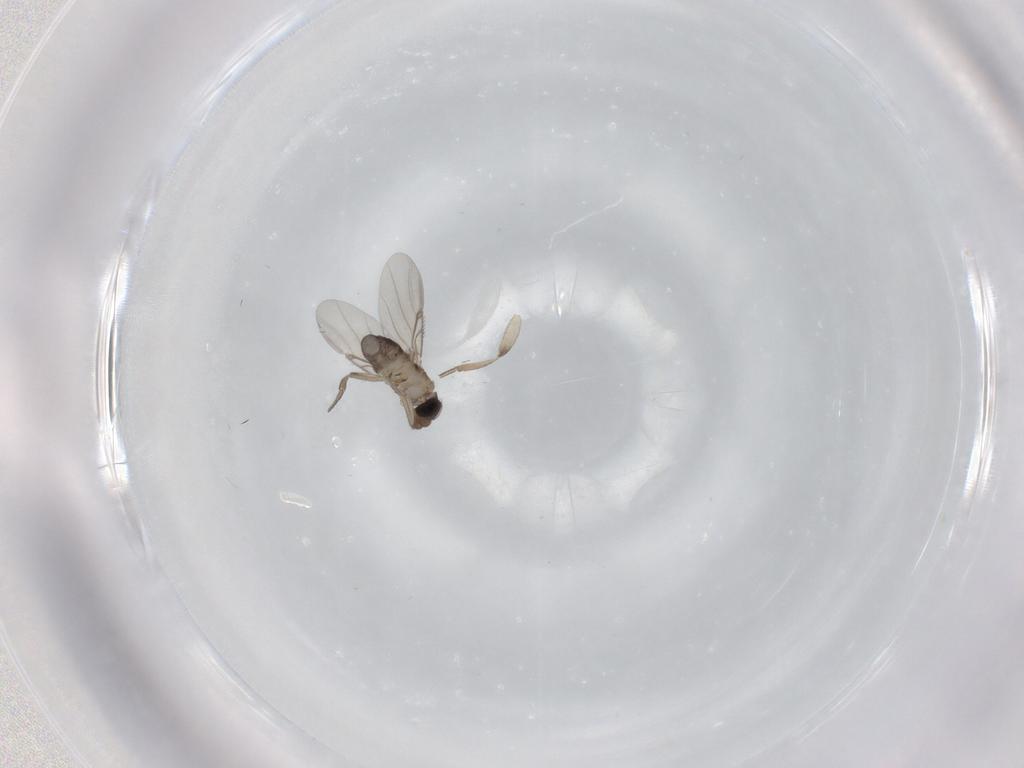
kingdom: Animalia
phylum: Arthropoda
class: Insecta
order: Diptera
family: Phoridae
